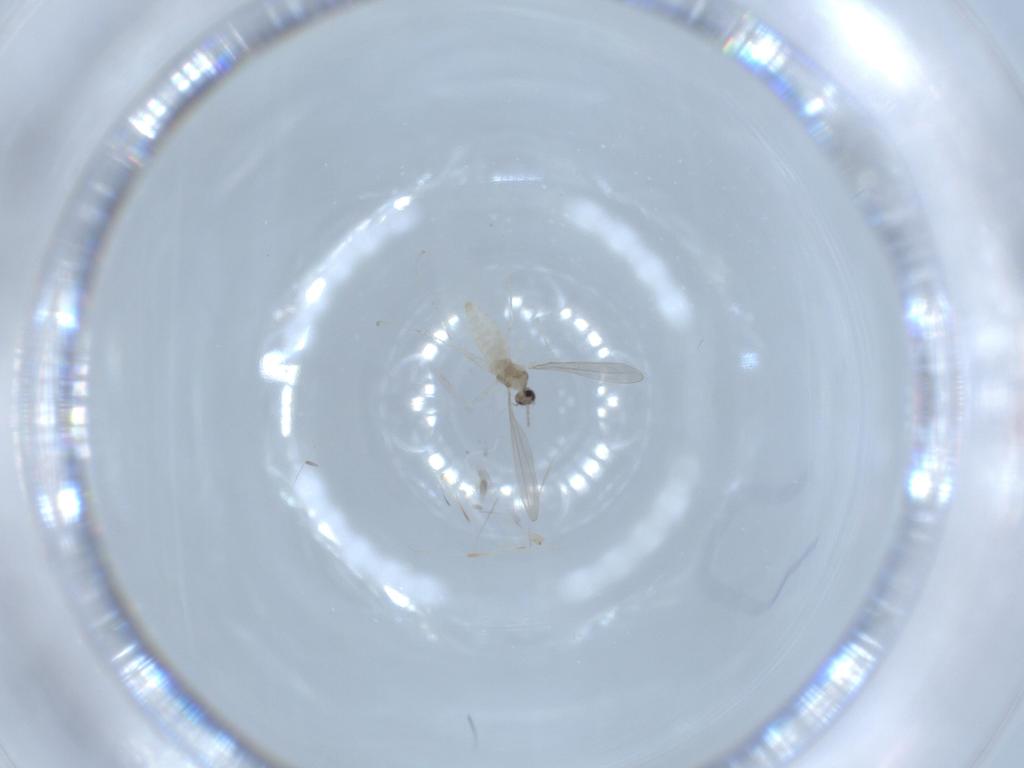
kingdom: Animalia
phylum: Arthropoda
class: Insecta
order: Diptera
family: Cecidomyiidae
